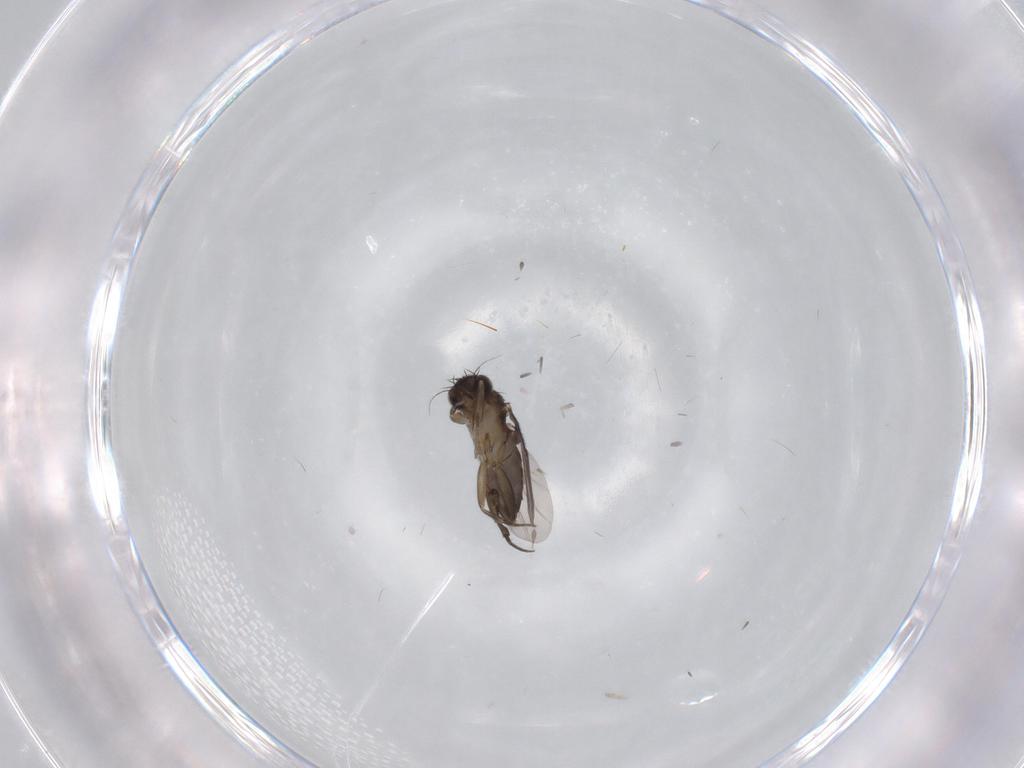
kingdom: Animalia
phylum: Arthropoda
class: Insecta
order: Diptera
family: Phoridae
